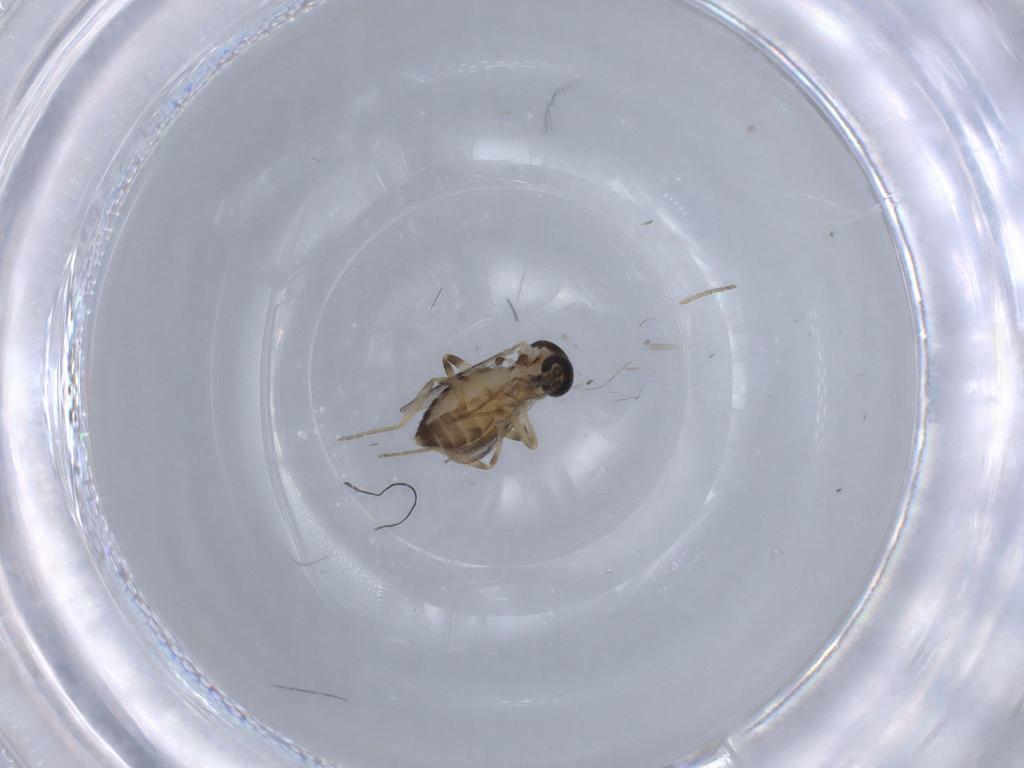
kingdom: Animalia
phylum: Arthropoda
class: Insecta
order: Diptera
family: Ceratopogonidae
